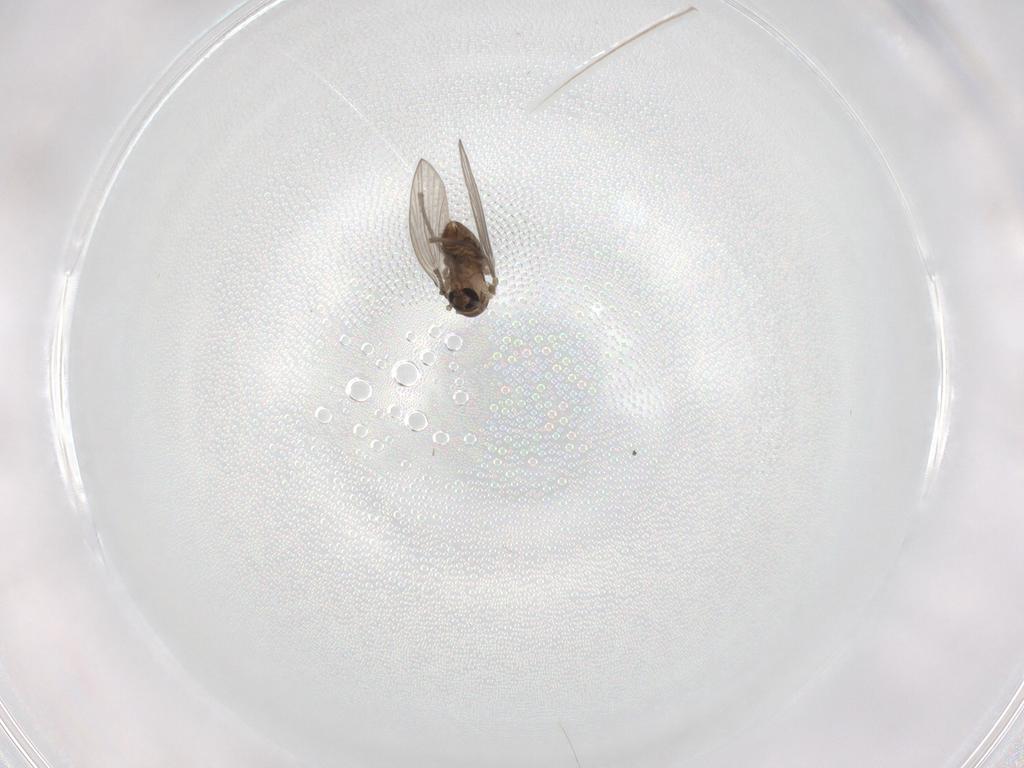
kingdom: Animalia
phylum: Arthropoda
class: Insecta
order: Diptera
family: Psychodidae
